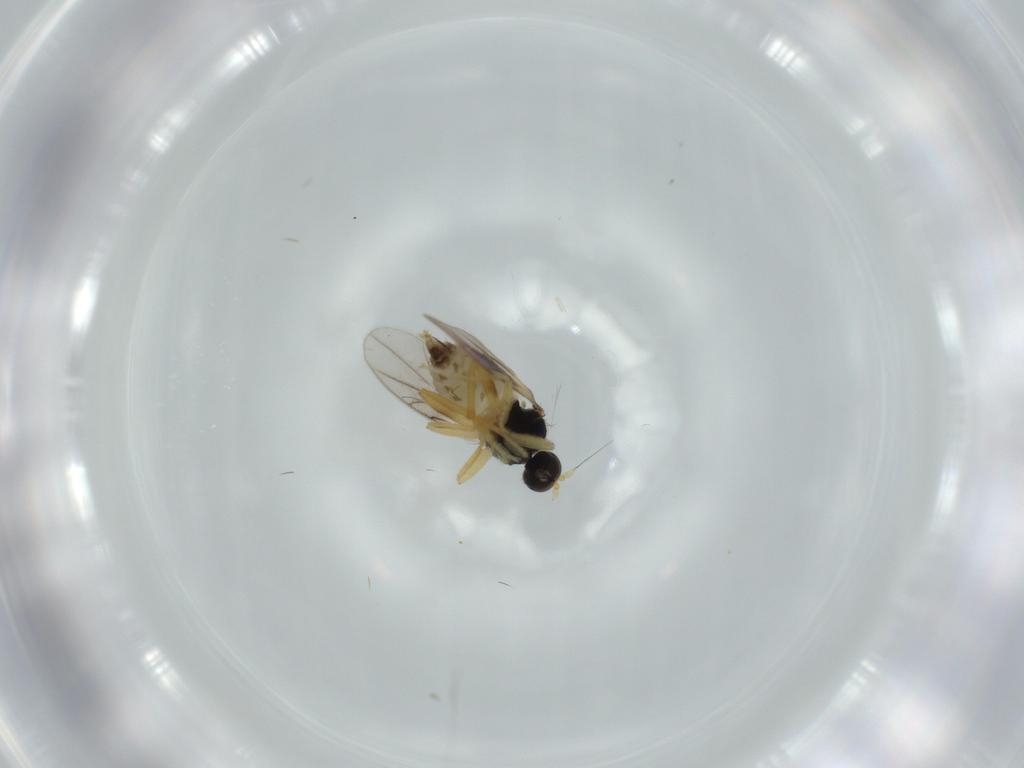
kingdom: Animalia
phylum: Arthropoda
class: Insecta
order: Diptera
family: Hybotidae
